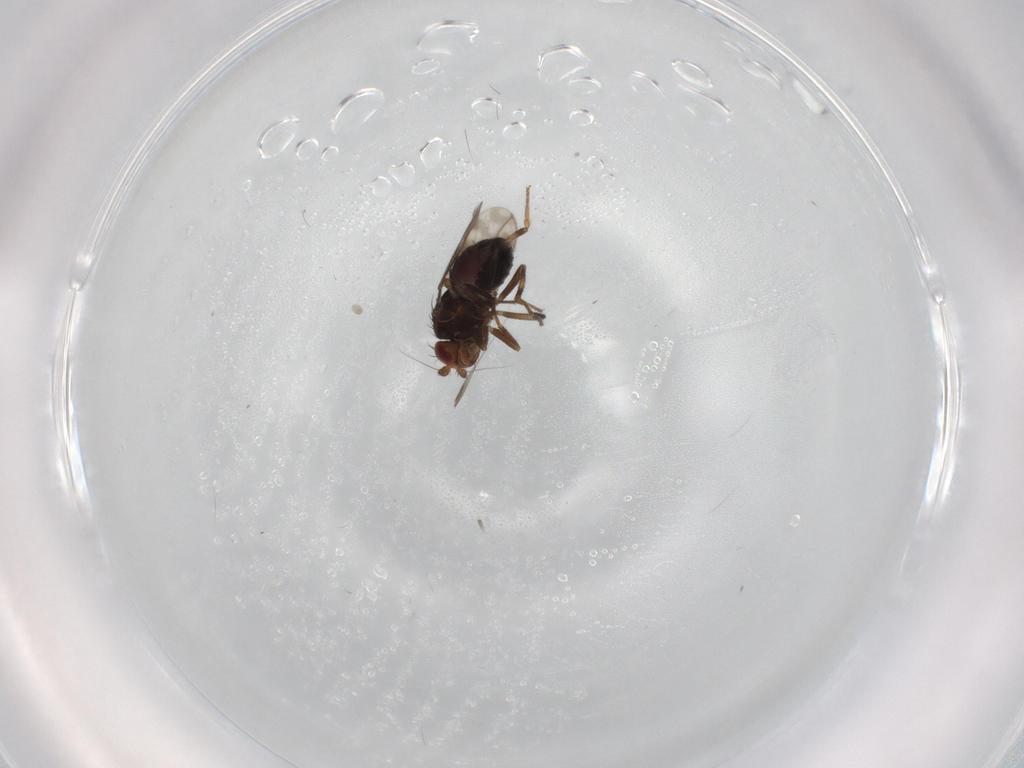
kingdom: Animalia
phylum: Arthropoda
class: Insecta
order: Diptera
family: Sphaeroceridae
